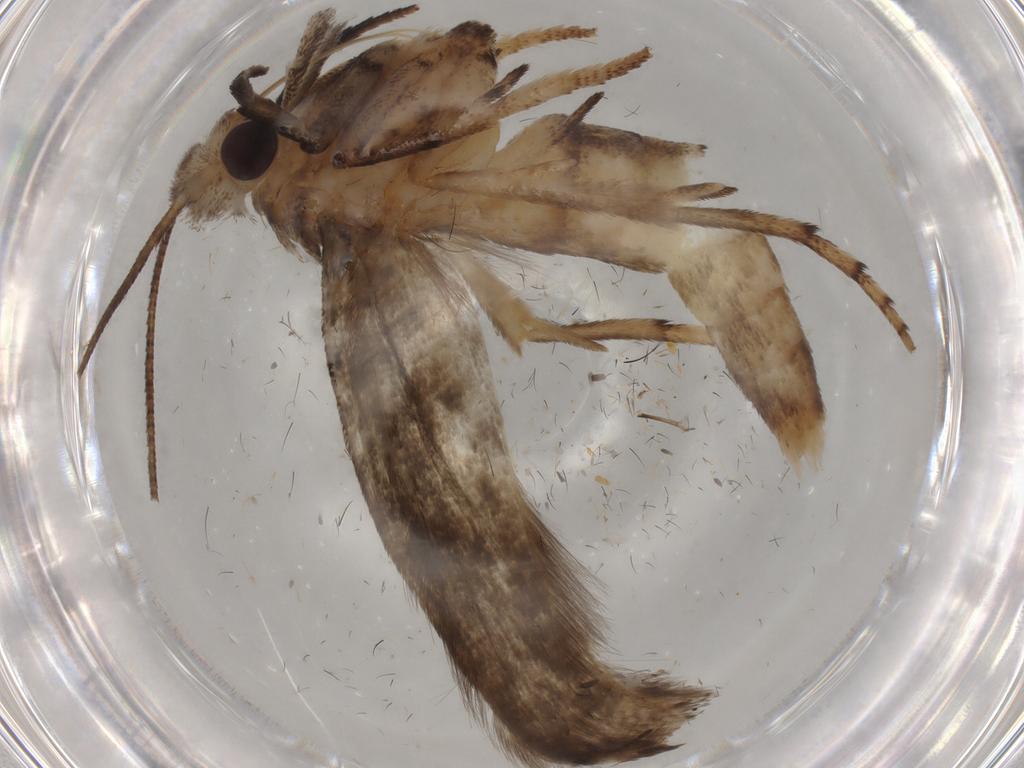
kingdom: Animalia
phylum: Arthropoda
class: Insecta
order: Lepidoptera
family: Yponomeutidae
